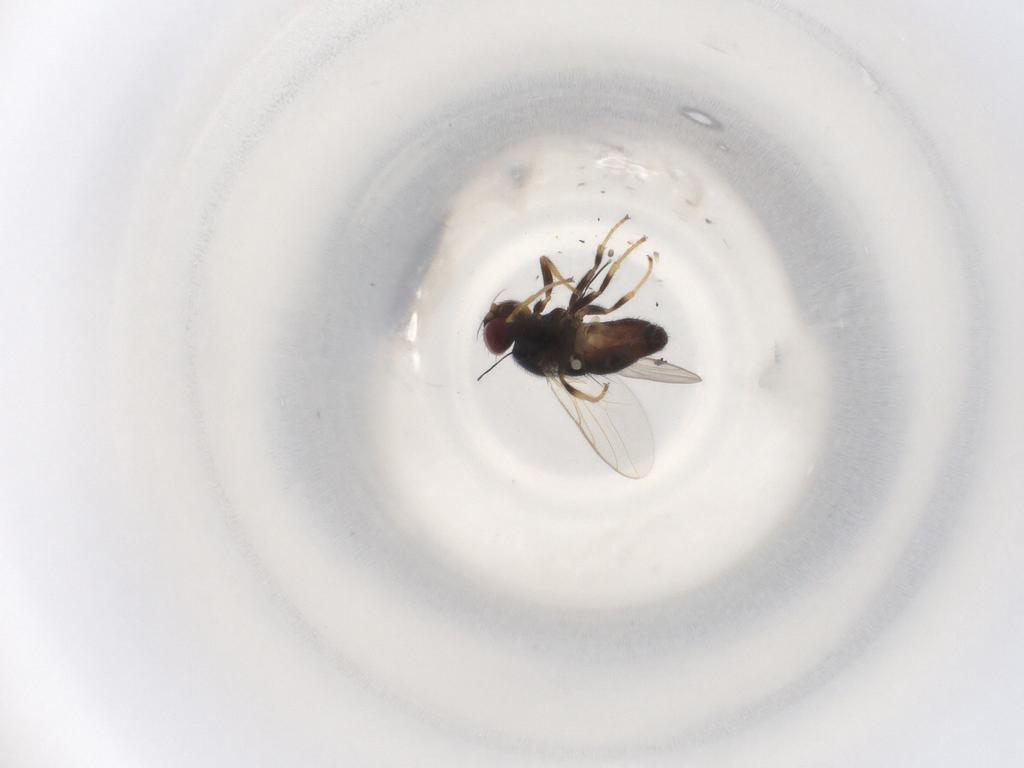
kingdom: Animalia
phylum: Arthropoda
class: Insecta
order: Diptera
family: Chloropidae
